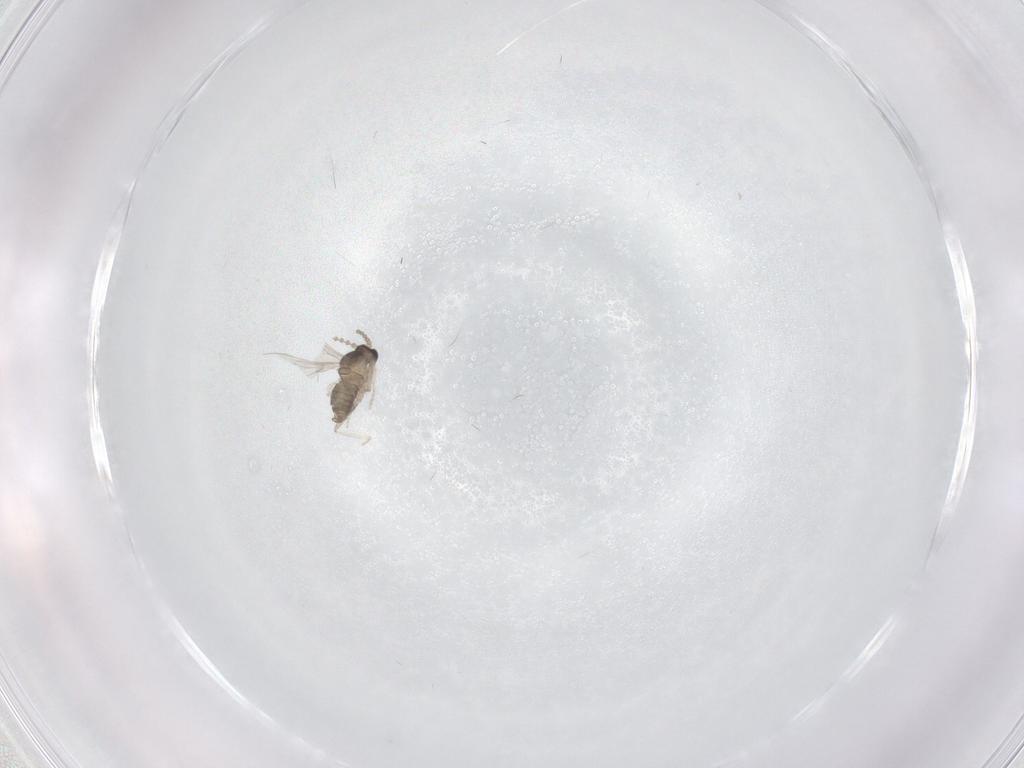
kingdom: Animalia
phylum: Arthropoda
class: Insecta
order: Diptera
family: Cecidomyiidae
